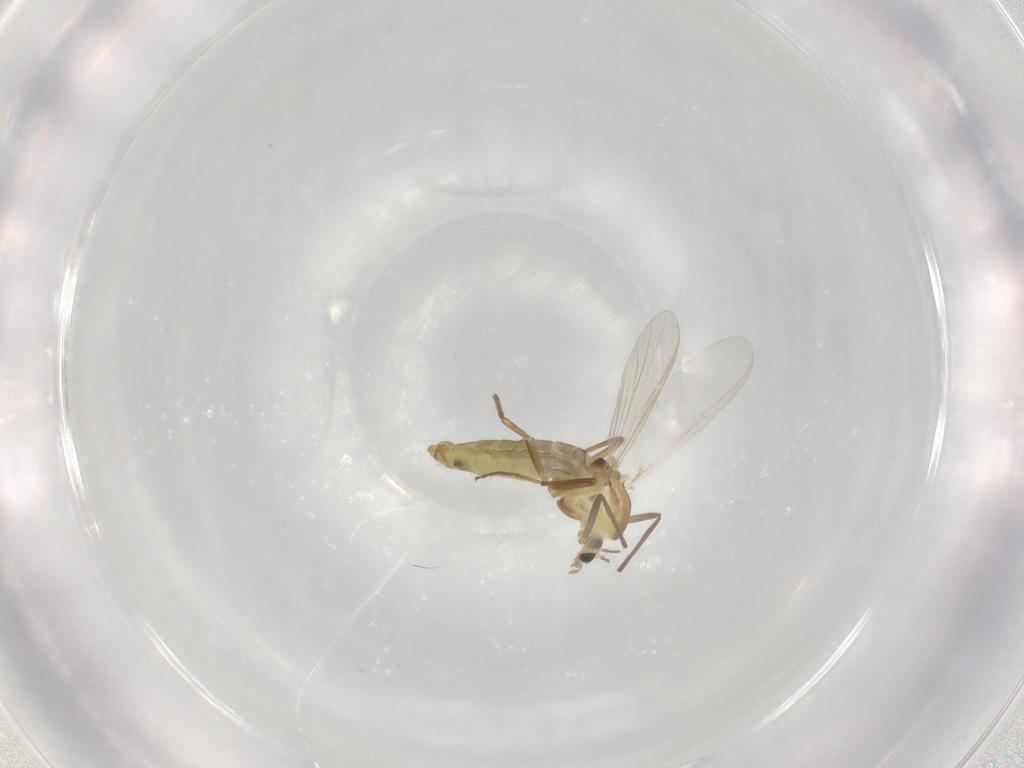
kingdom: Animalia
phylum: Arthropoda
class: Insecta
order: Diptera
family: Chironomidae
